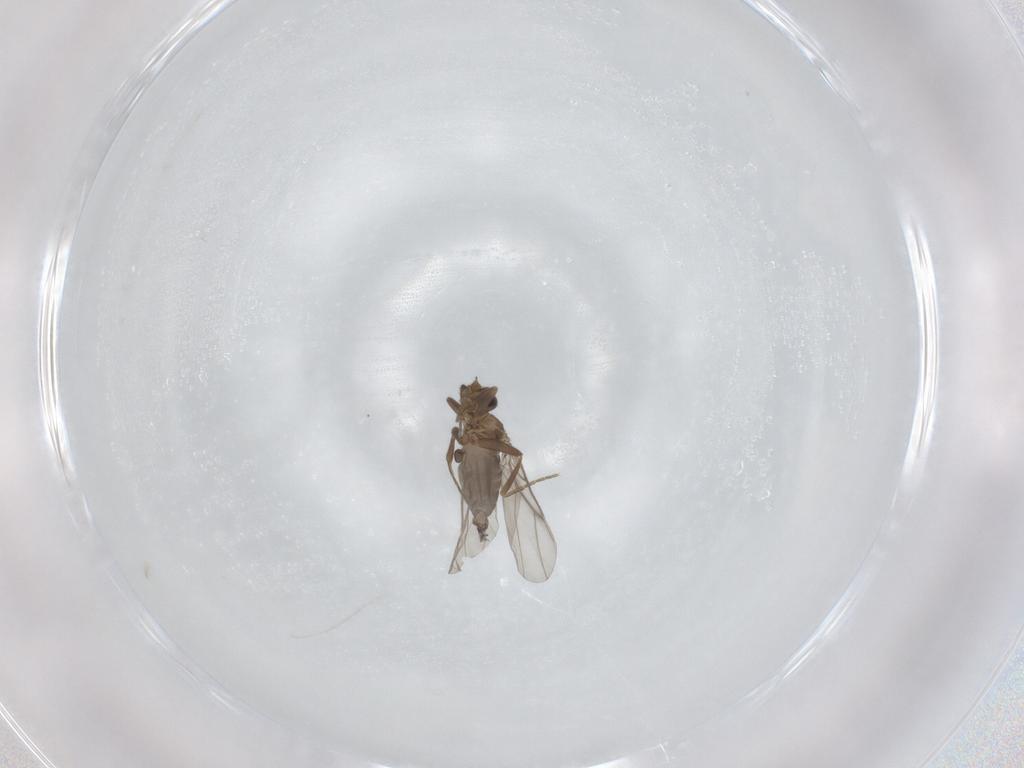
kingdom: Animalia
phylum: Arthropoda
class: Insecta
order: Diptera
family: Phoridae
